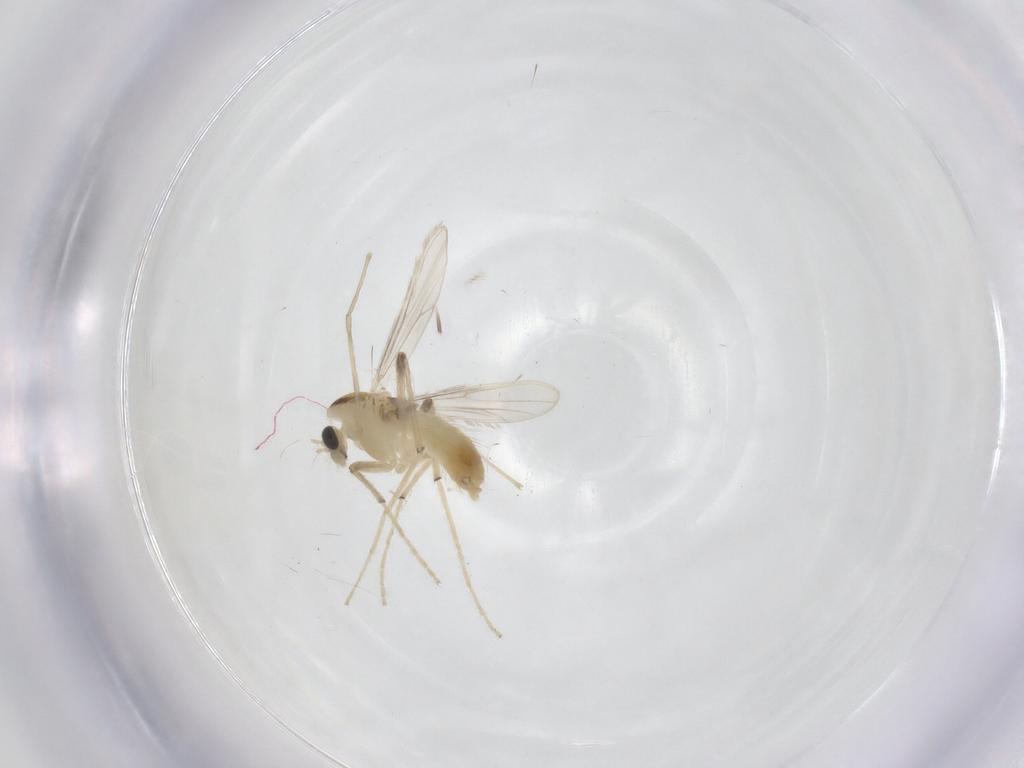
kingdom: Animalia
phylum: Arthropoda
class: Insecta
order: Diptera
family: Chironomidae
